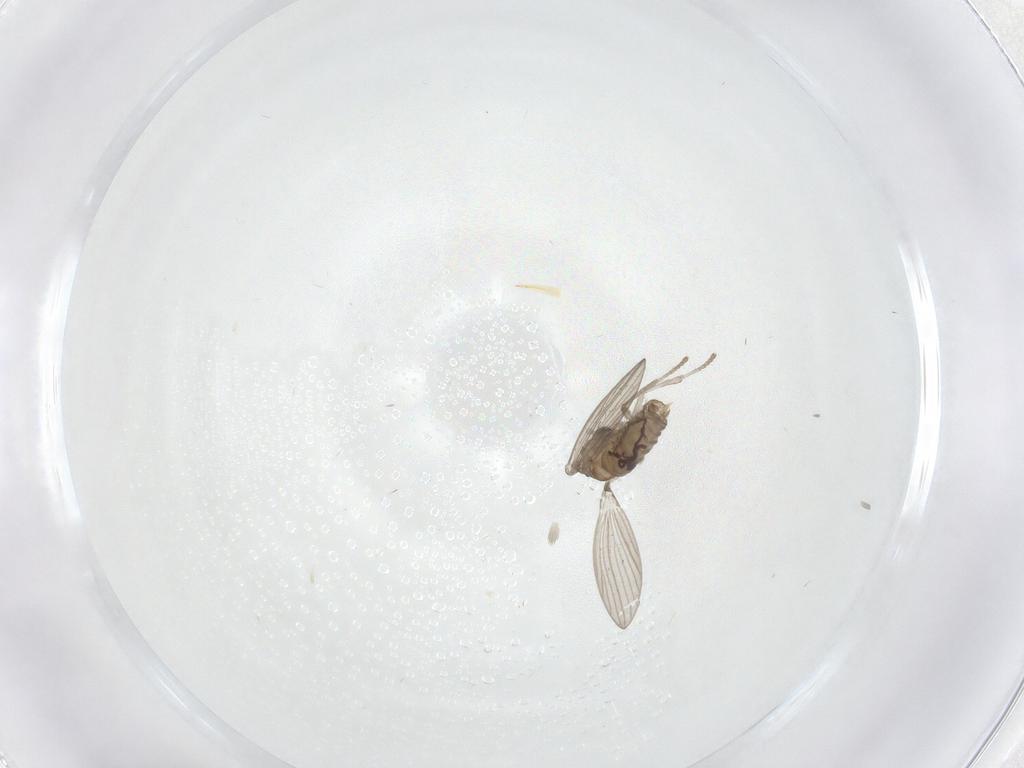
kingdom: Animalia
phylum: Arthropoda
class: Insecta
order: Diptera
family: Psychodidae
